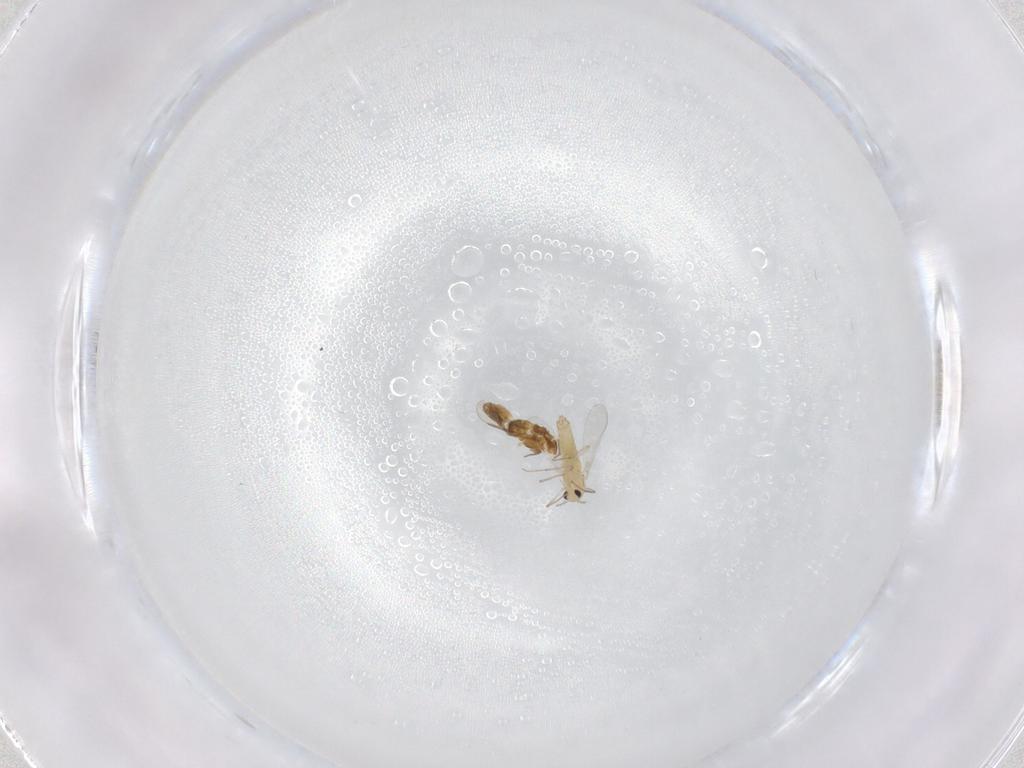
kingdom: Animalia
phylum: Arthropoda
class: Insecta
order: Diptera
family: Chironomidae
